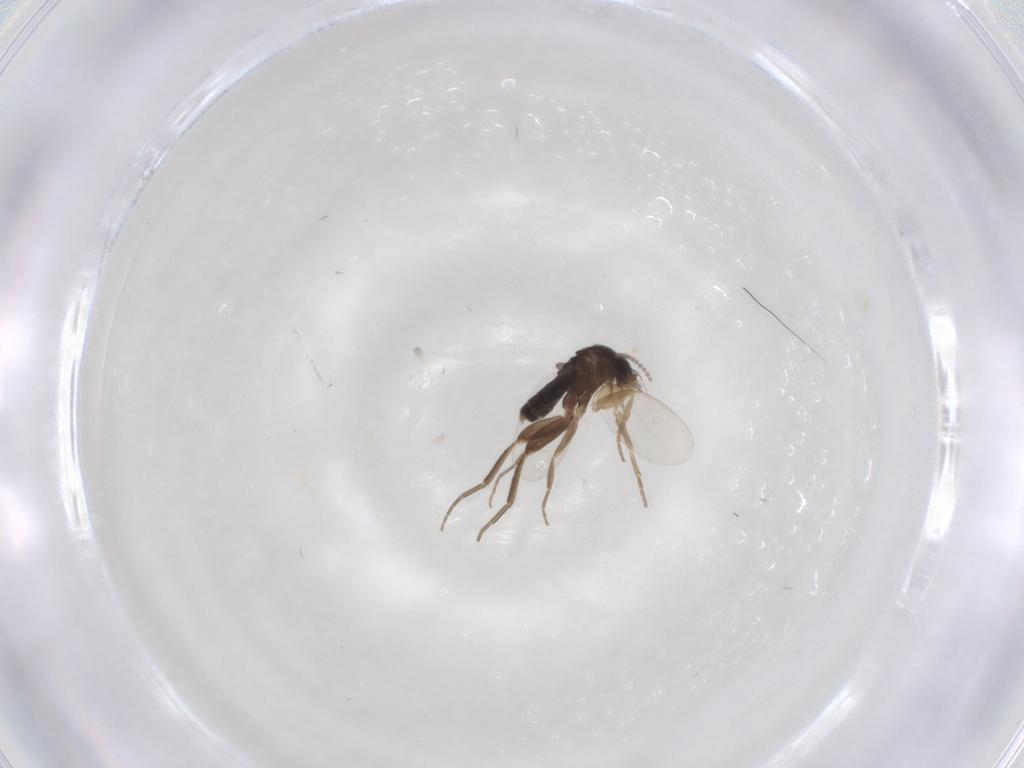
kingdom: Animalia
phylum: Arthropoda
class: Insecta
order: Diptera
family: Cecidomyiidae
